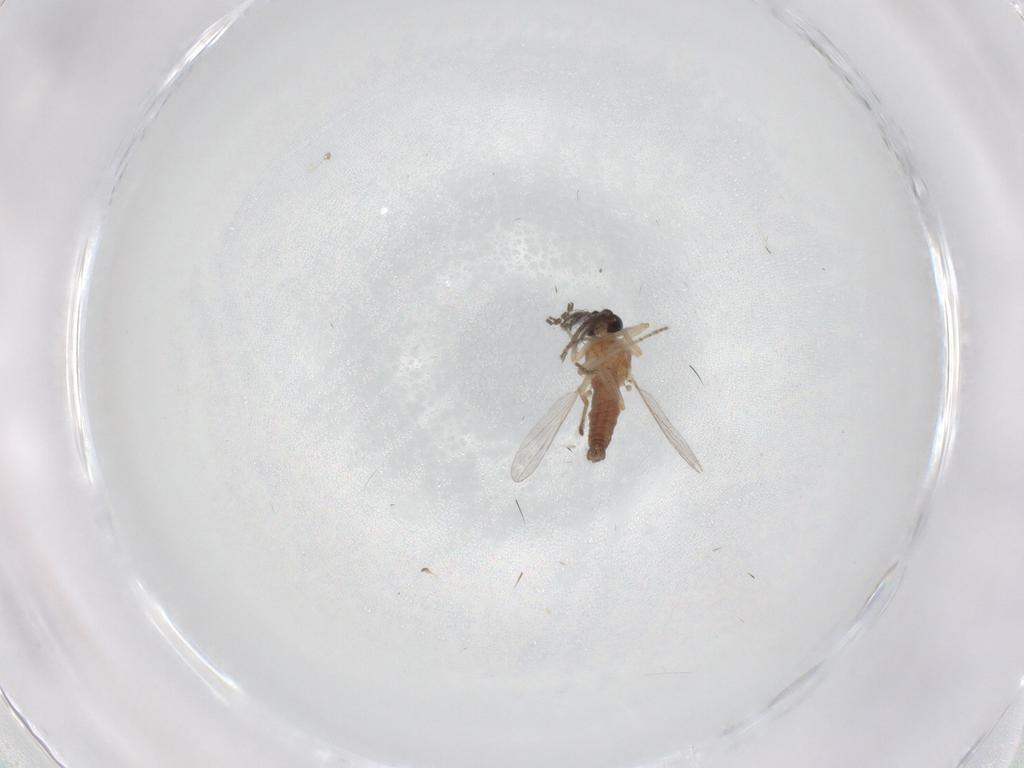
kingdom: Animalia
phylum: Arthropoda
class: Insecta
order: Diptera
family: Ceratopogonidae
